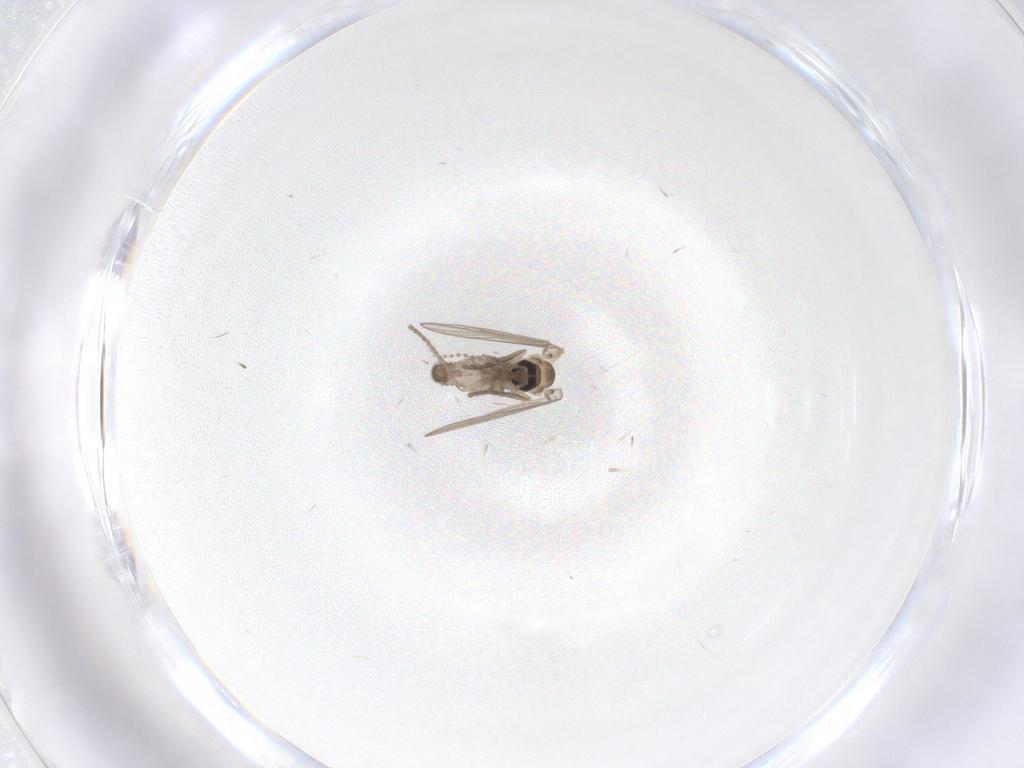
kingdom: Animalia
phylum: Arthropoda
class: Insecta
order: Diptera
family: Psychodidae
